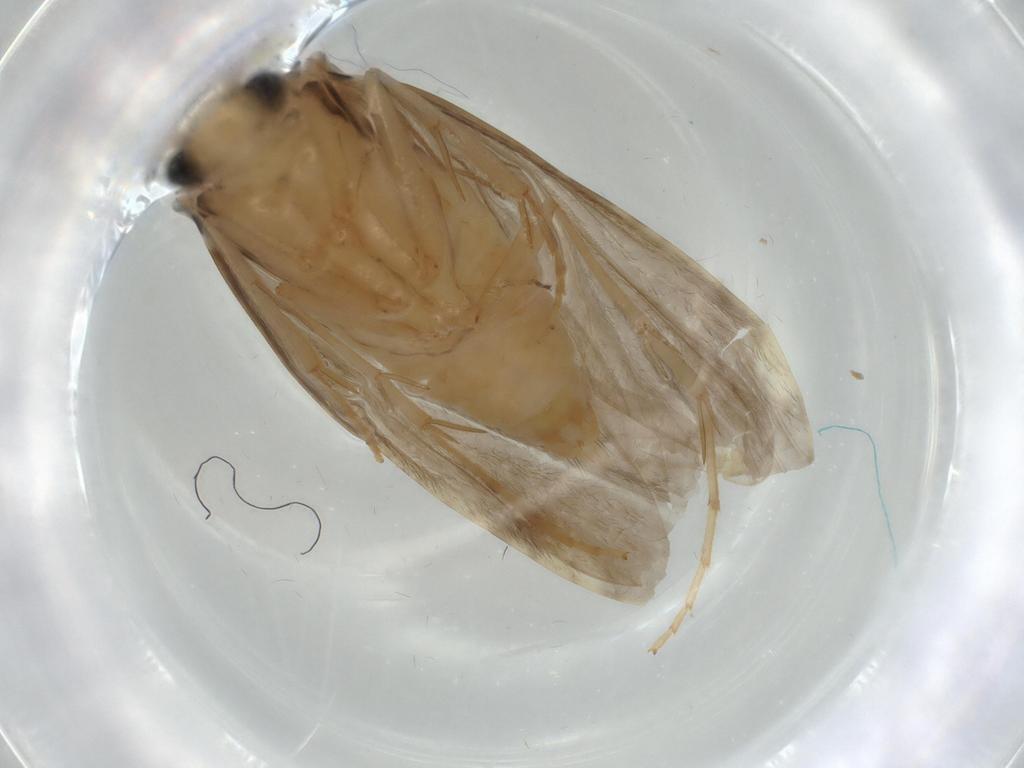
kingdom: Animalia
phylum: Arthropoda
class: Insecta
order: Trichoptera
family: Ecnomidae
